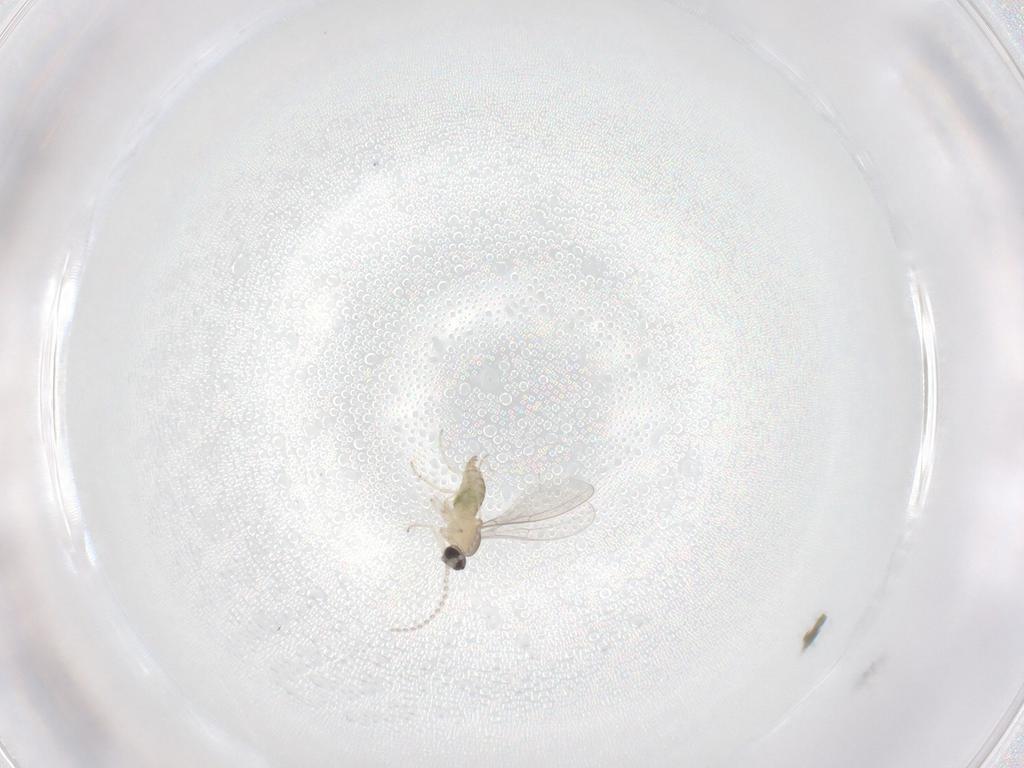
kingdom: Animalia
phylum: Arthropoda
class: Insecta
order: Diptera
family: Cecidomyiidae
